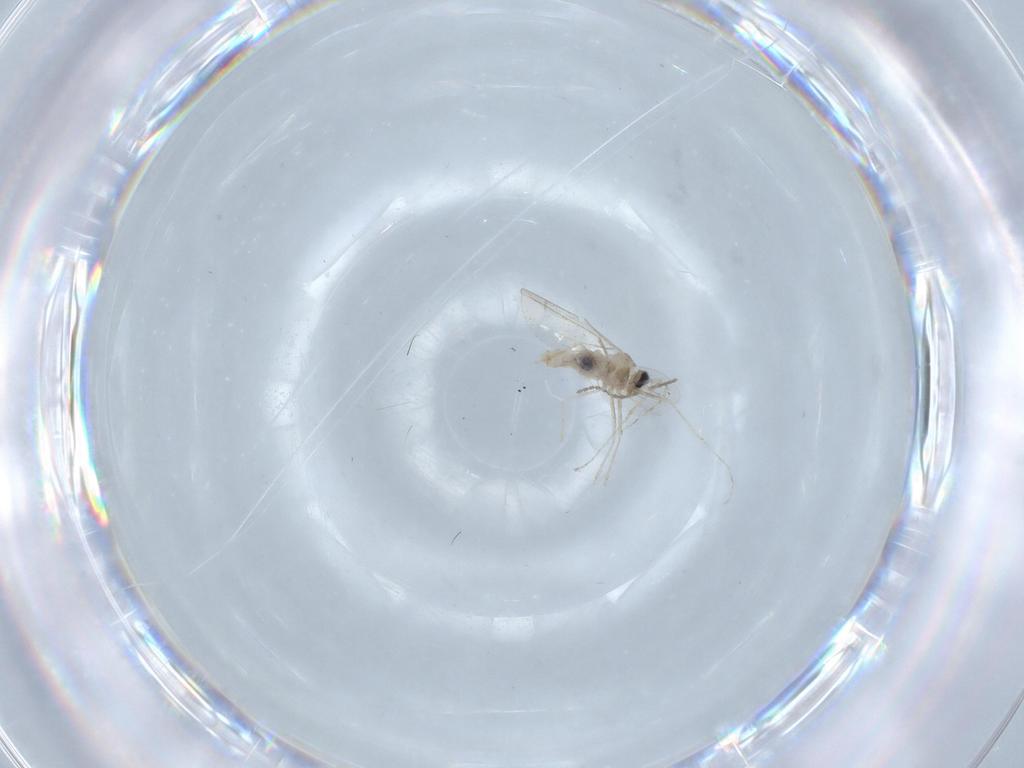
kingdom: Animalia
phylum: Arthropoda
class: Insecta
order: Diptera
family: Cecidomyiidae
